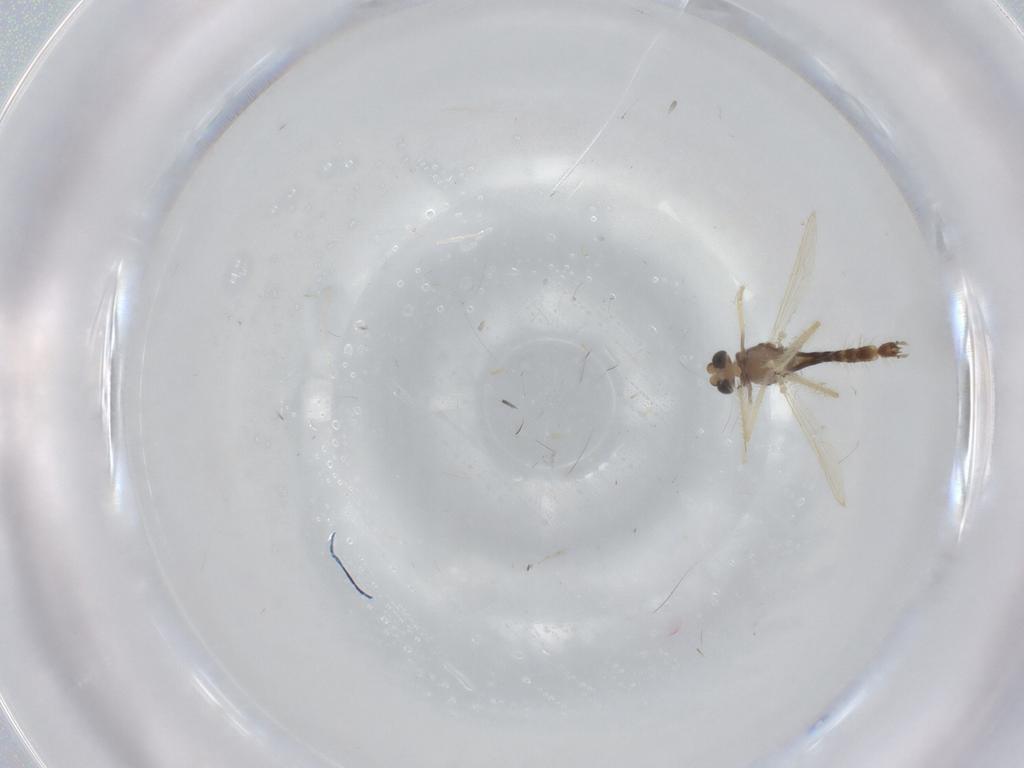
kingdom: Animalia
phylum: Arthropoda
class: Insecta
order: Diptera
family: Chironomidae
